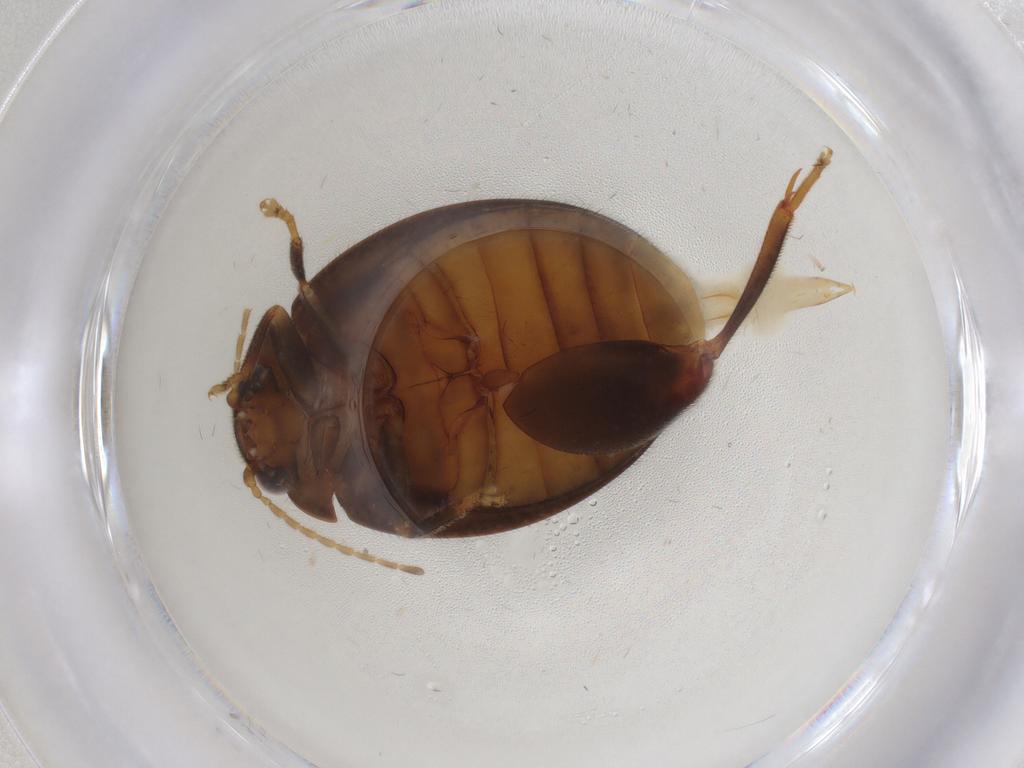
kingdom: Animalia
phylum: Arthropoda
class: Insecta
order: Coleoptera
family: Scirtidae
